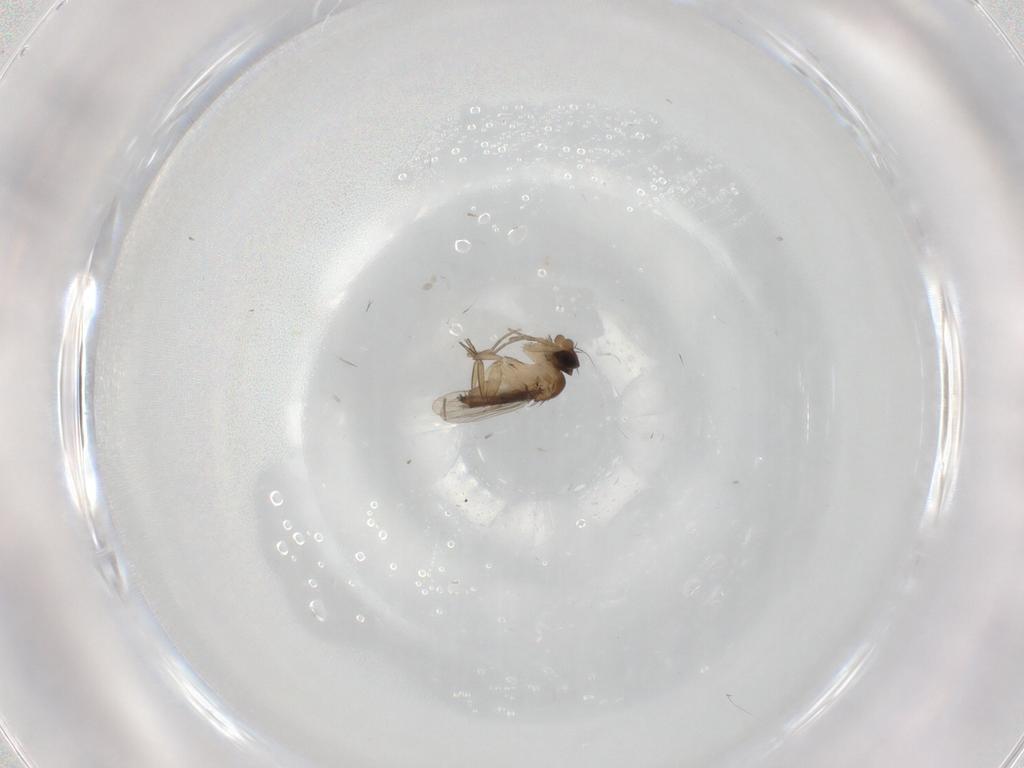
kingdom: Animalia
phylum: Arthropoda
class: Insecta
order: Diptera
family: Phoridae
